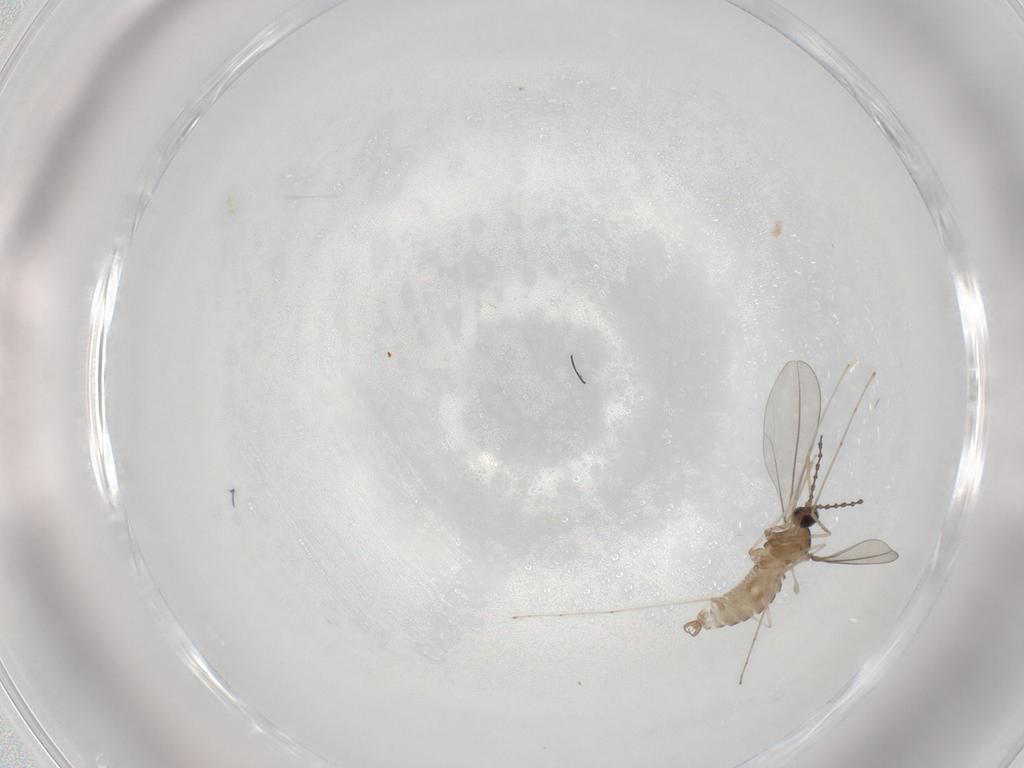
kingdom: Animalia
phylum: Arthropoda
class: Insecta
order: Diptera
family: Cecidomyiidae
